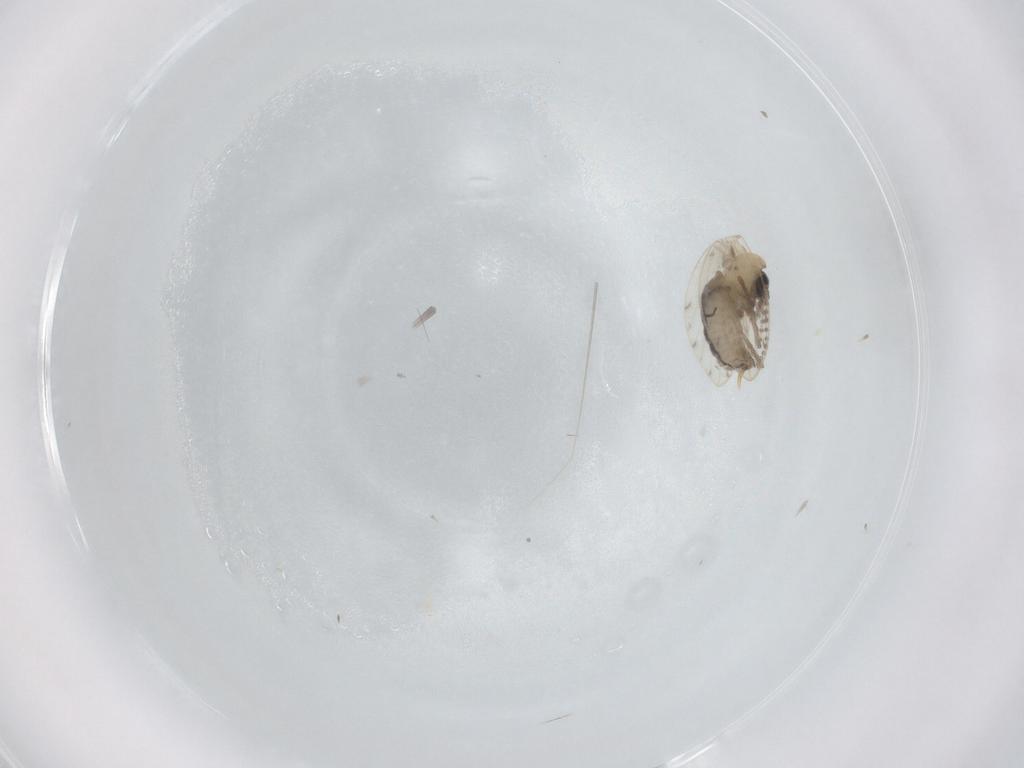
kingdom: Animalia
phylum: Arthropoda
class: Insecta
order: Diptera
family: Psychodidae
